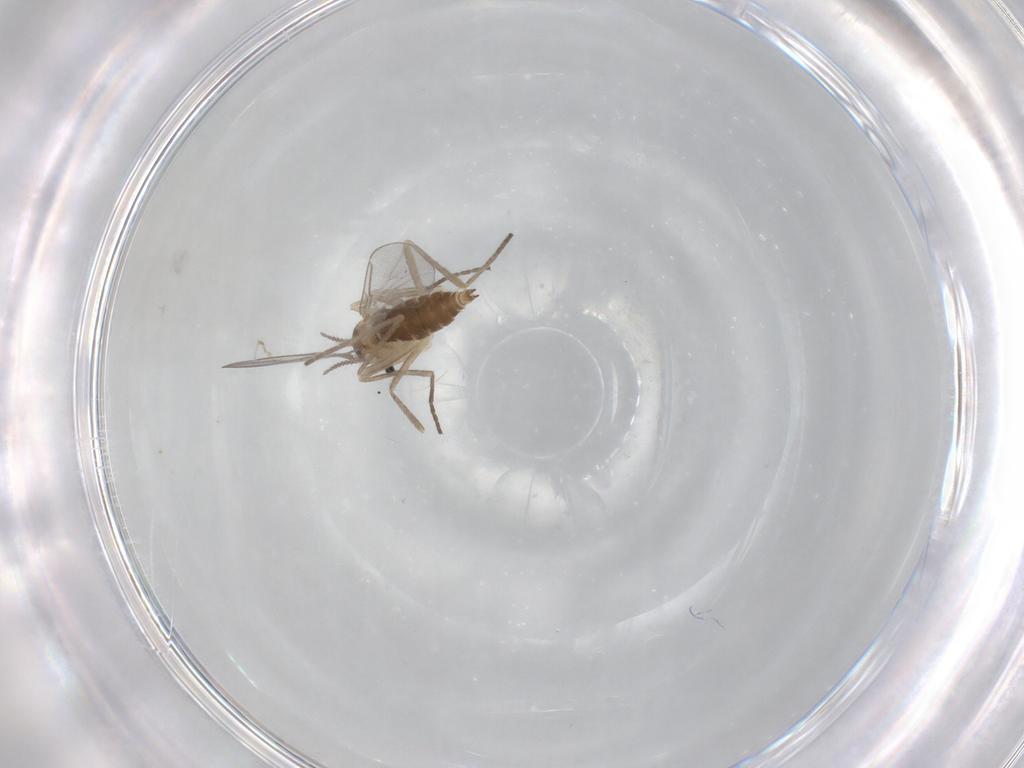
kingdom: Animalia
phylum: Arthropoda
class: Insecta
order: Diptera
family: Cecidomyiidae
